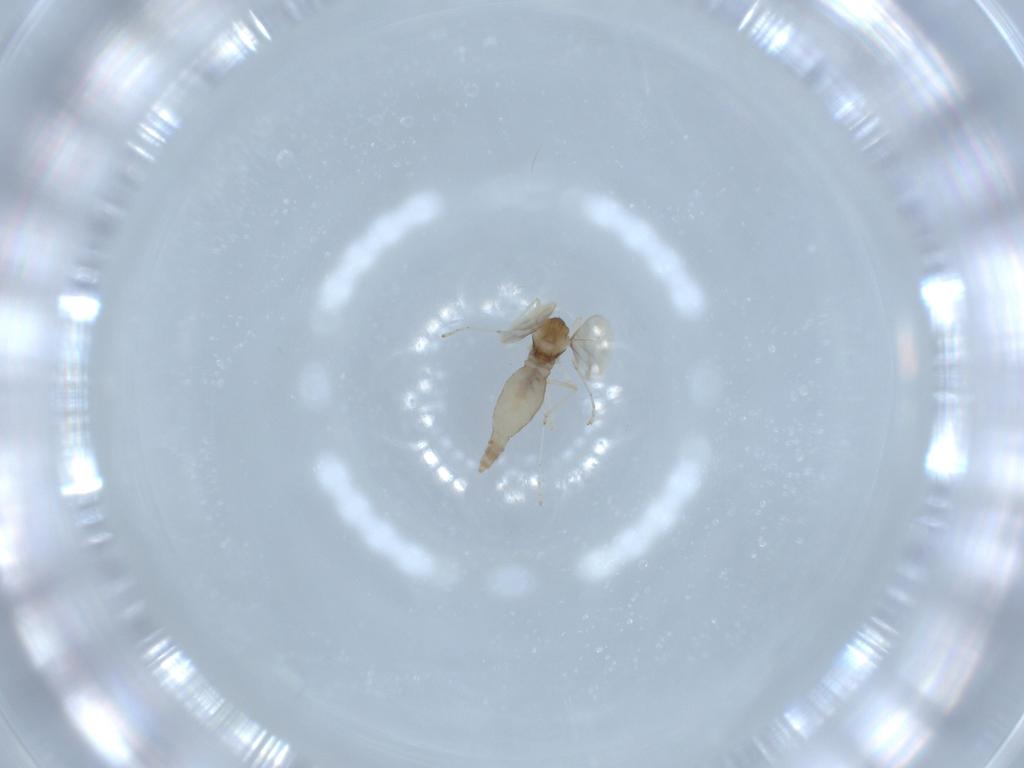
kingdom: Animalia
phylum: Arthropoda
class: Insecta
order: Diptera
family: Cecidomyiidae
